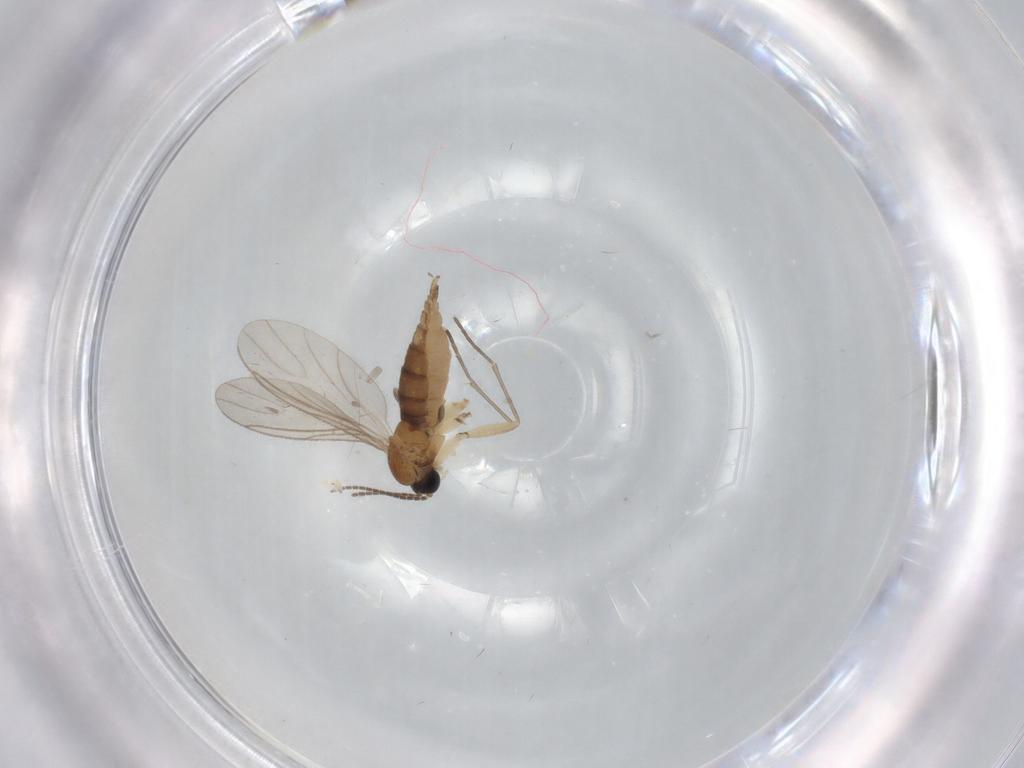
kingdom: Animalia
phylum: Arthropoda
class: Insecta
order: Diptera
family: Sciaridae
